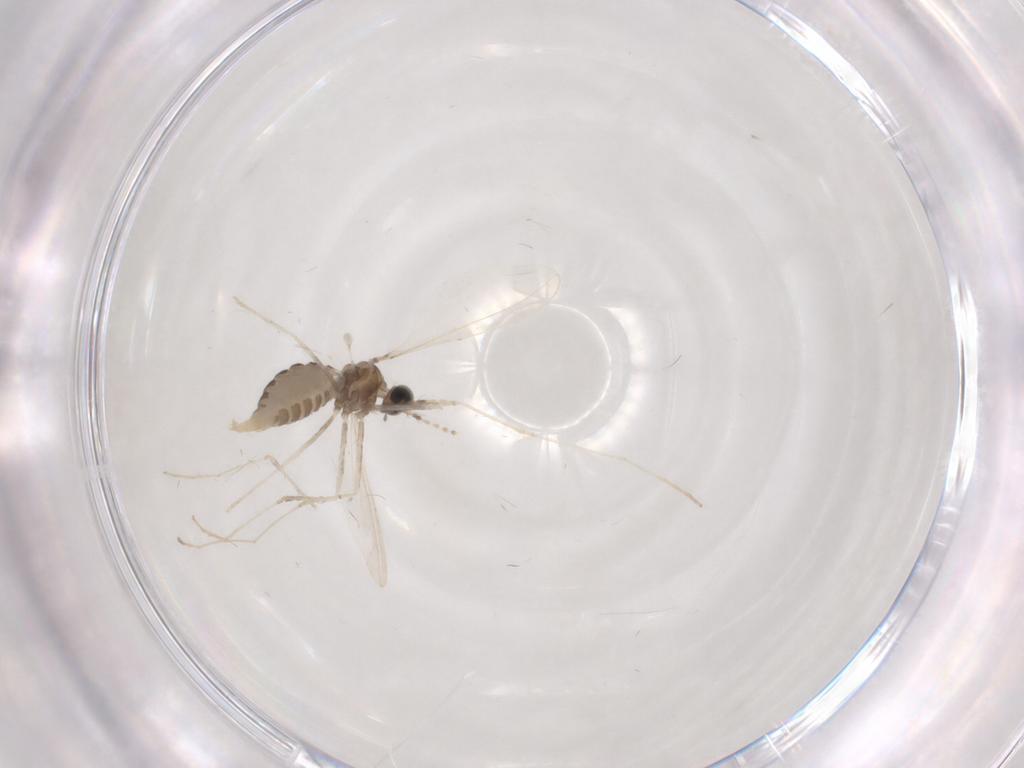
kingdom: Animalia
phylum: Arthropoda
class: Insecta
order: Diptera
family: Cecidomyiidae
